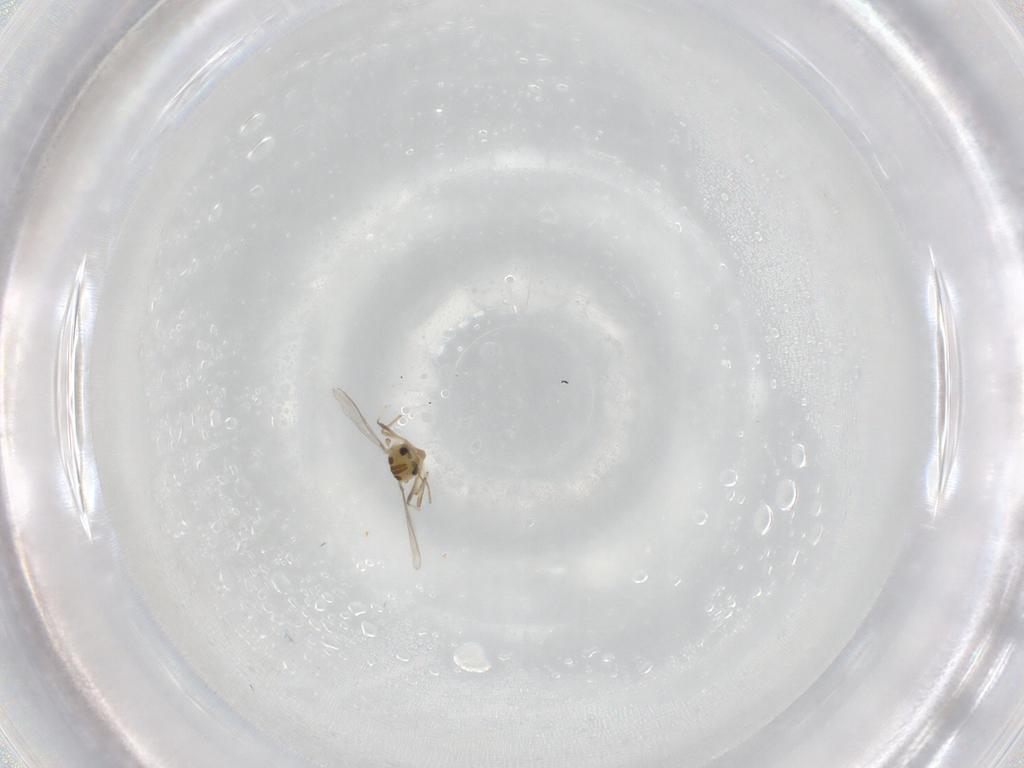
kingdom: Animalia
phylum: Arthropoda
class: Insecta
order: Diptera
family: Chironomidae
